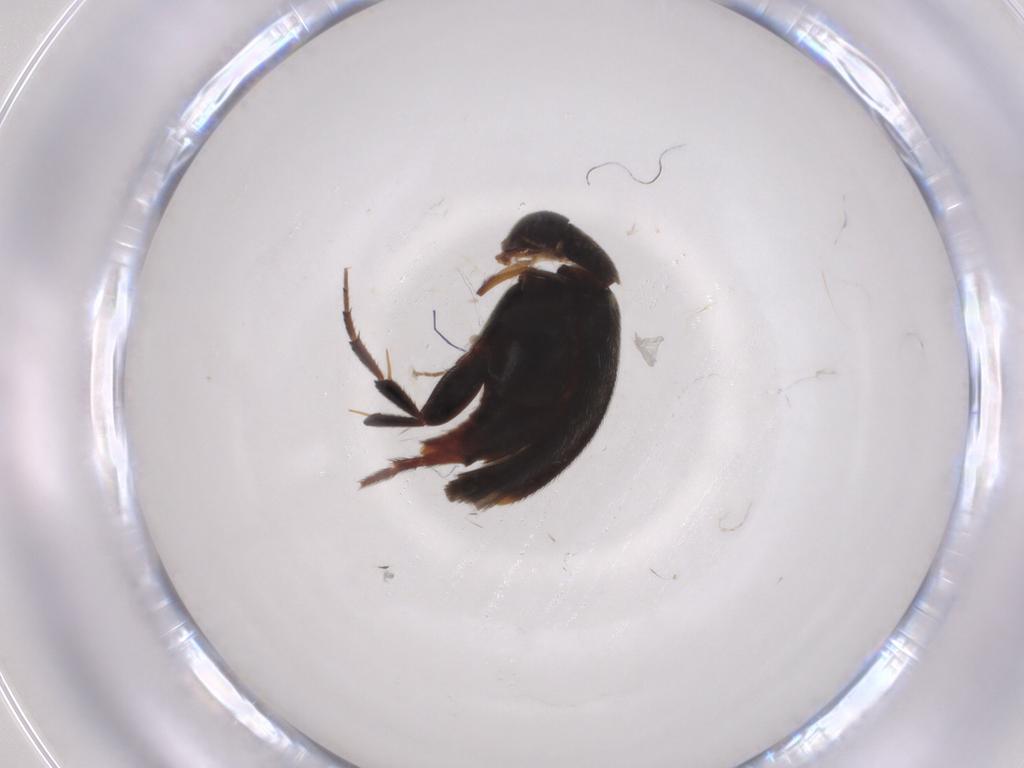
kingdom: Animalia
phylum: Arthropoda
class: Insecta
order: Coleoptera
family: Mordellidae
